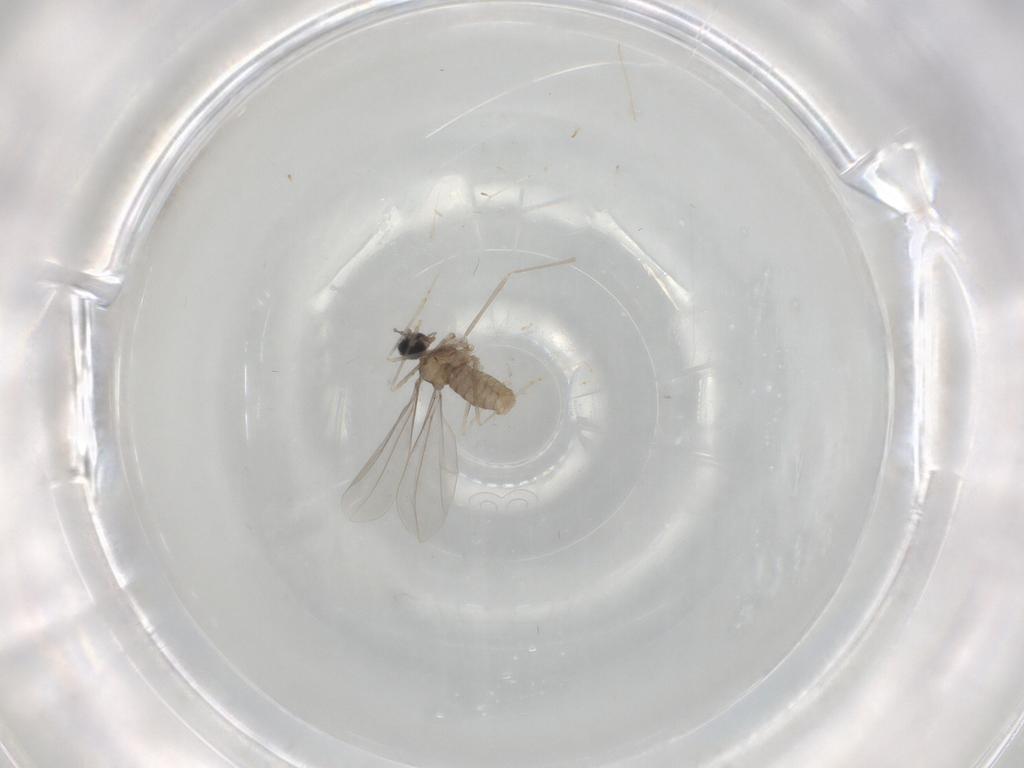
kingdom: Animalia
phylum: Arthropoda
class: Insecta
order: Diptera
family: Cecidomyiidae
